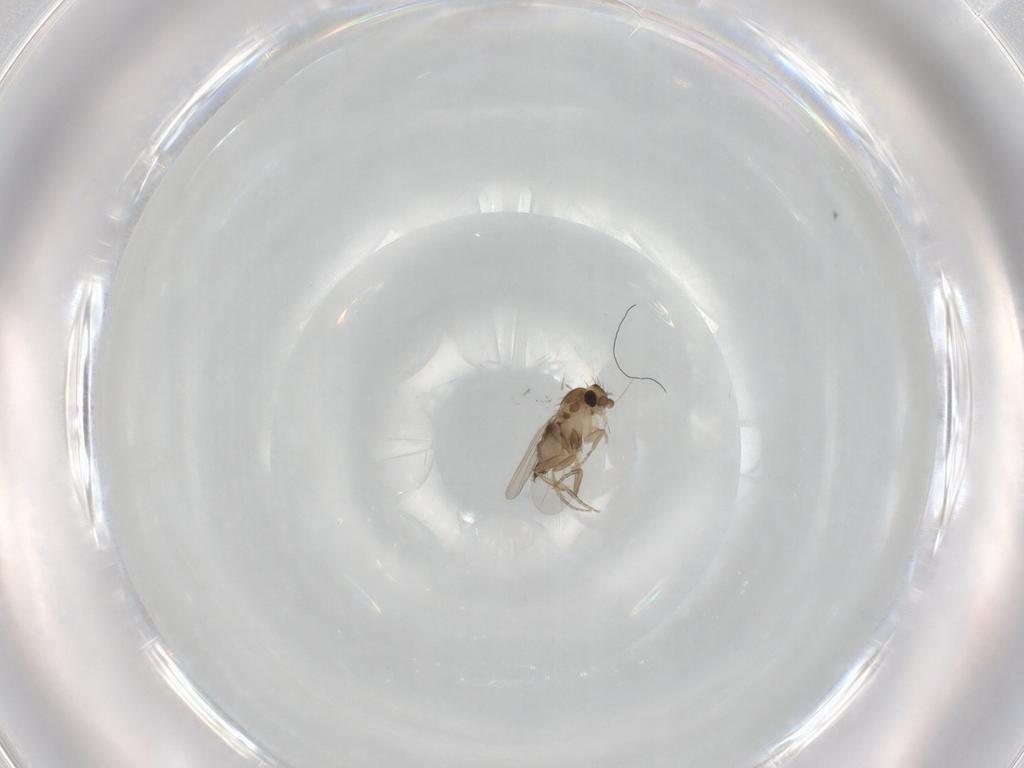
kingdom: Animalia
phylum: Arthropoda
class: Insecta
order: Diptera
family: Phoridae
